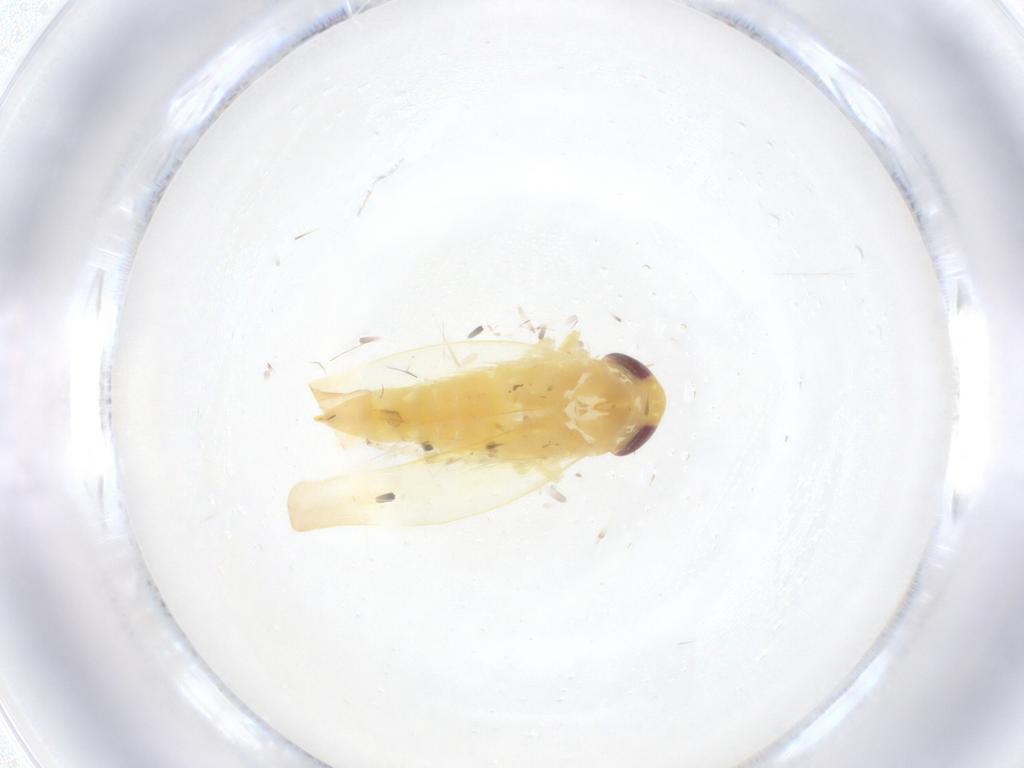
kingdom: Animalia
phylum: Arthropoda
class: Insecta
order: Hemiptera
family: Cicadellidae
